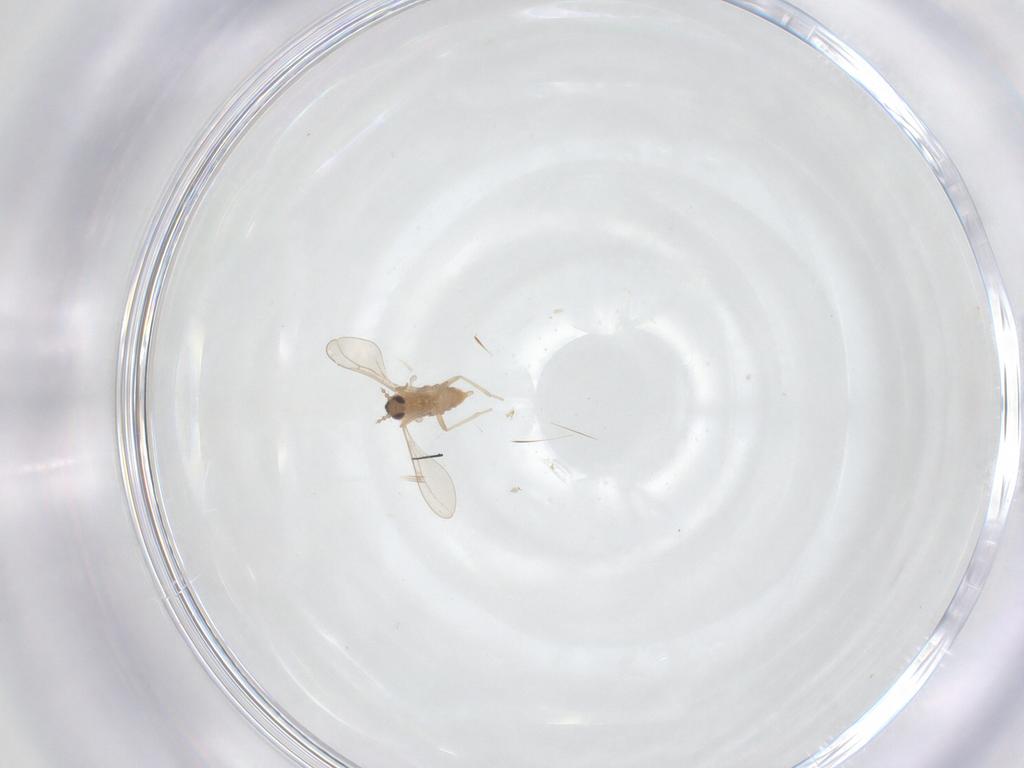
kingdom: Animalia
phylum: Arthropoda
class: Insecta
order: Diptera
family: Cecidomyiidae
